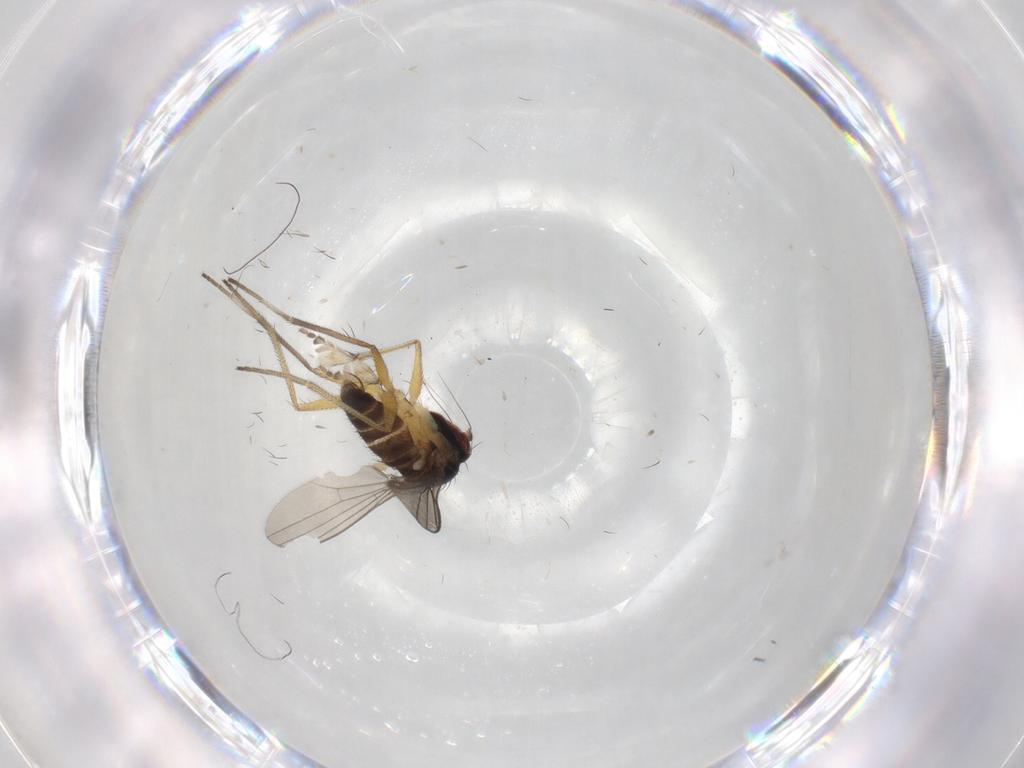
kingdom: Animalia
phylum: Arthropoda
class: Insecta
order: Diptera
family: Dolichopodidae
